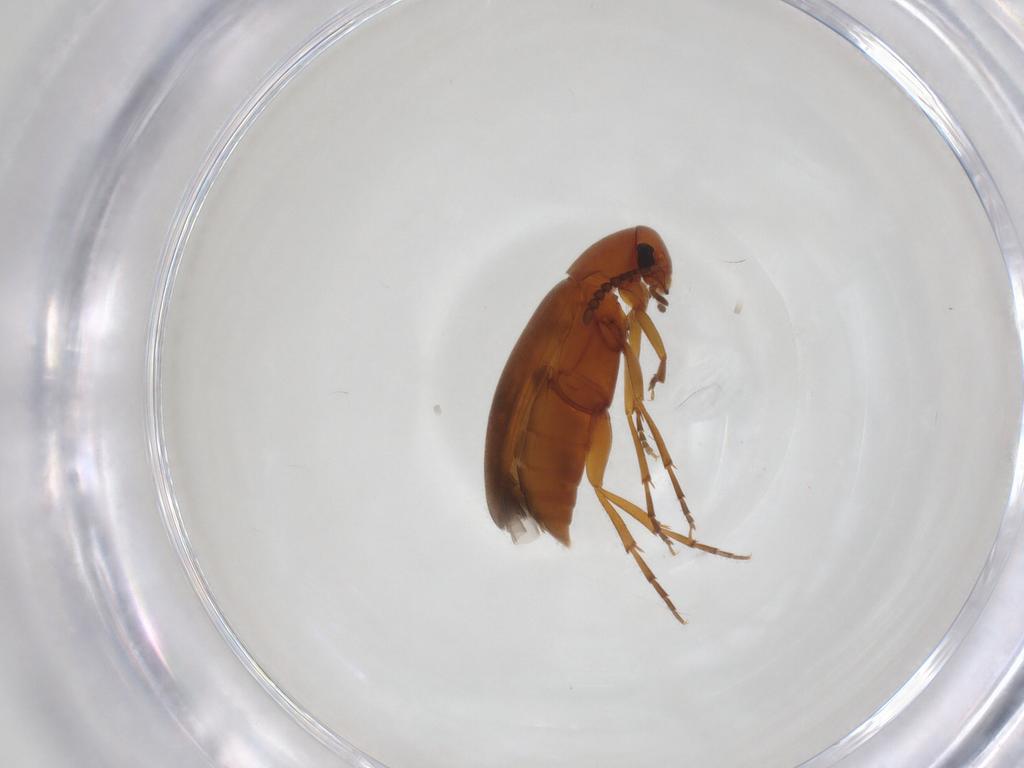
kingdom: Animalia
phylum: Arthropoda
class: Insecta
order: Coleoptera
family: Scraptiidae
